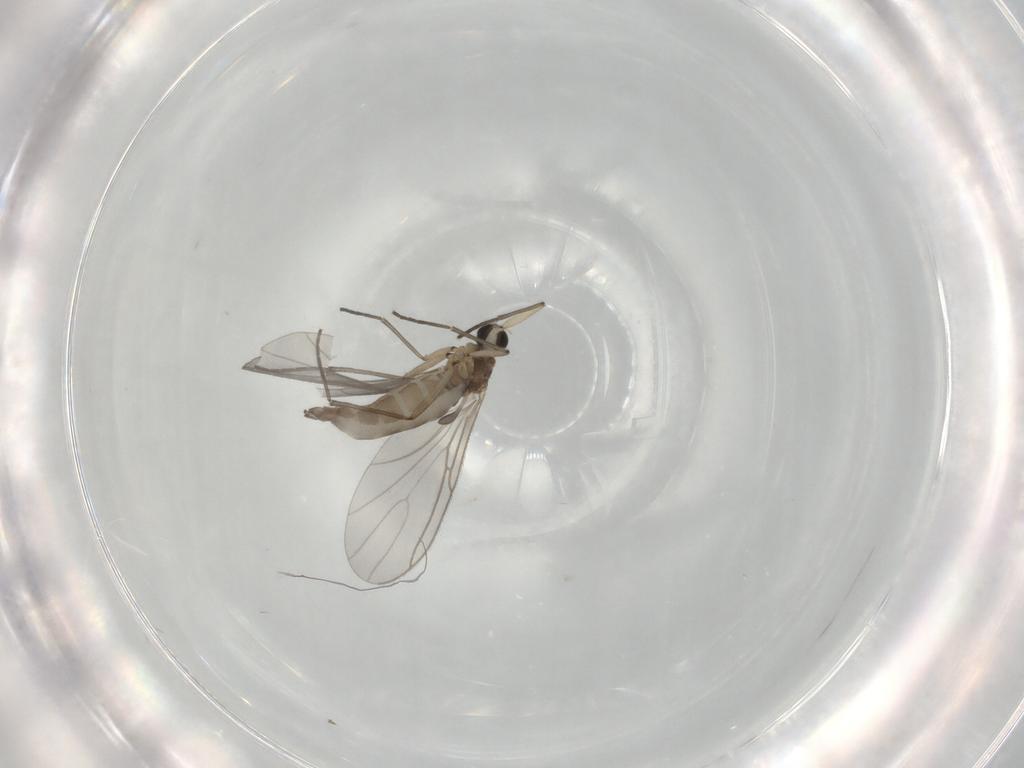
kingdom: Animalia
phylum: Arthropoda
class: Insecta
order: Diptera
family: Sciaridae
